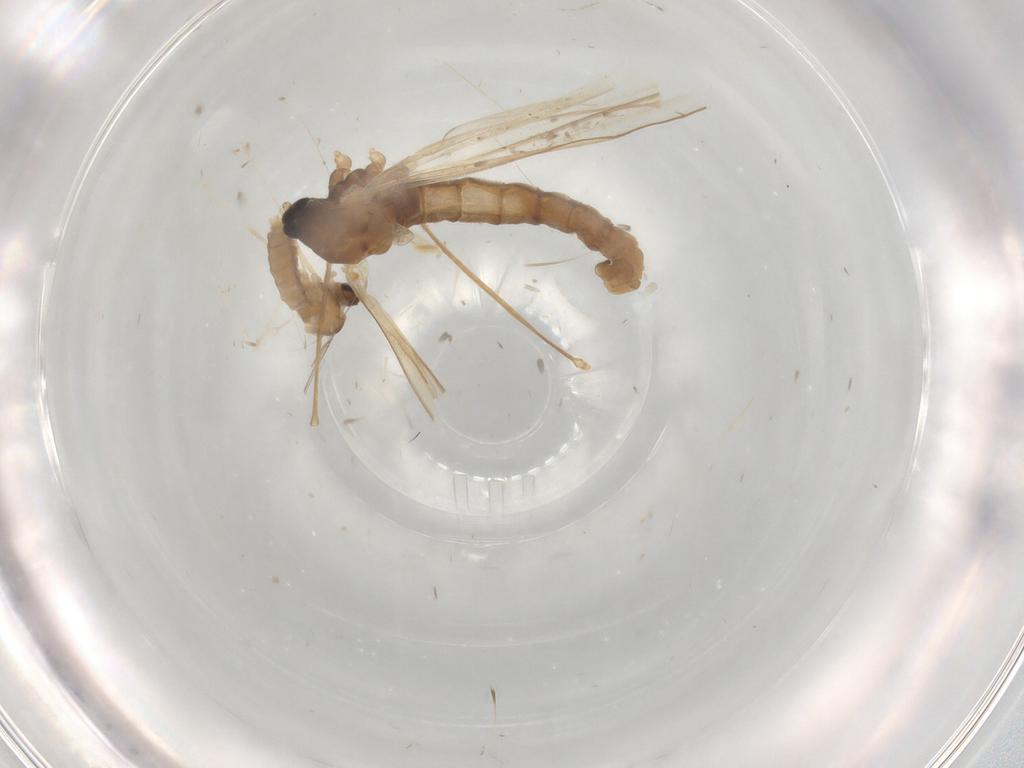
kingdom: Animalia
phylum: Arthropoda
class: Insecta
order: Diptera
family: Cecidomyiidae
